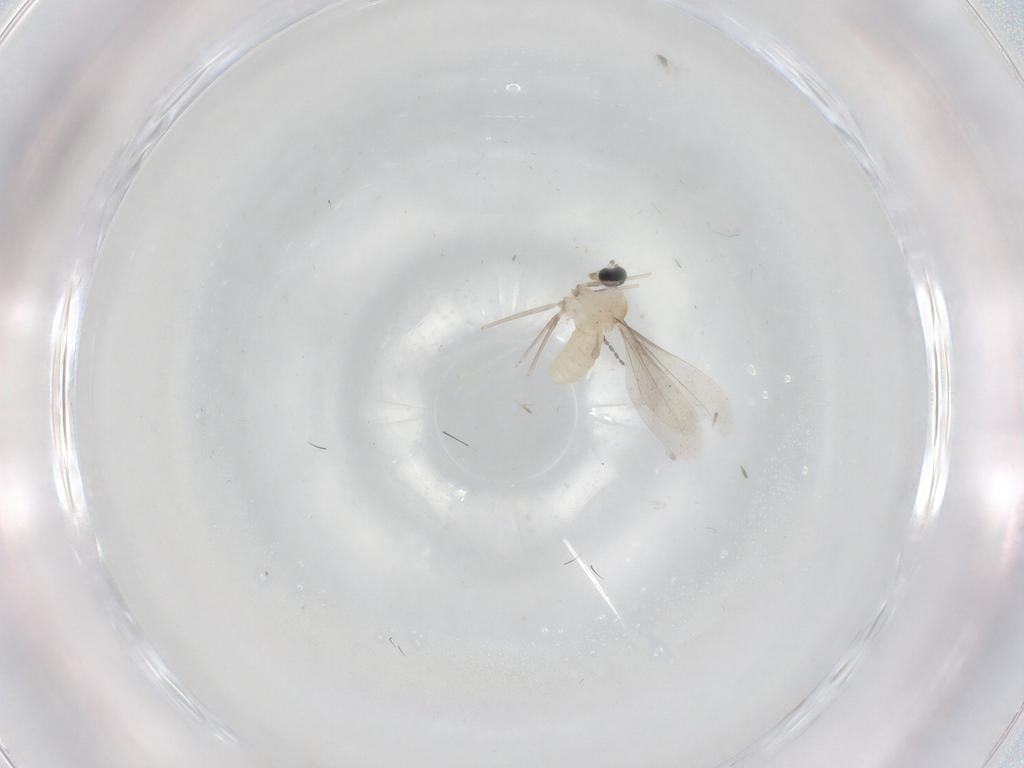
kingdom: Animalia
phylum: Arthropoda
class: Insecta
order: Diptera
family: Cecidomyiidae
